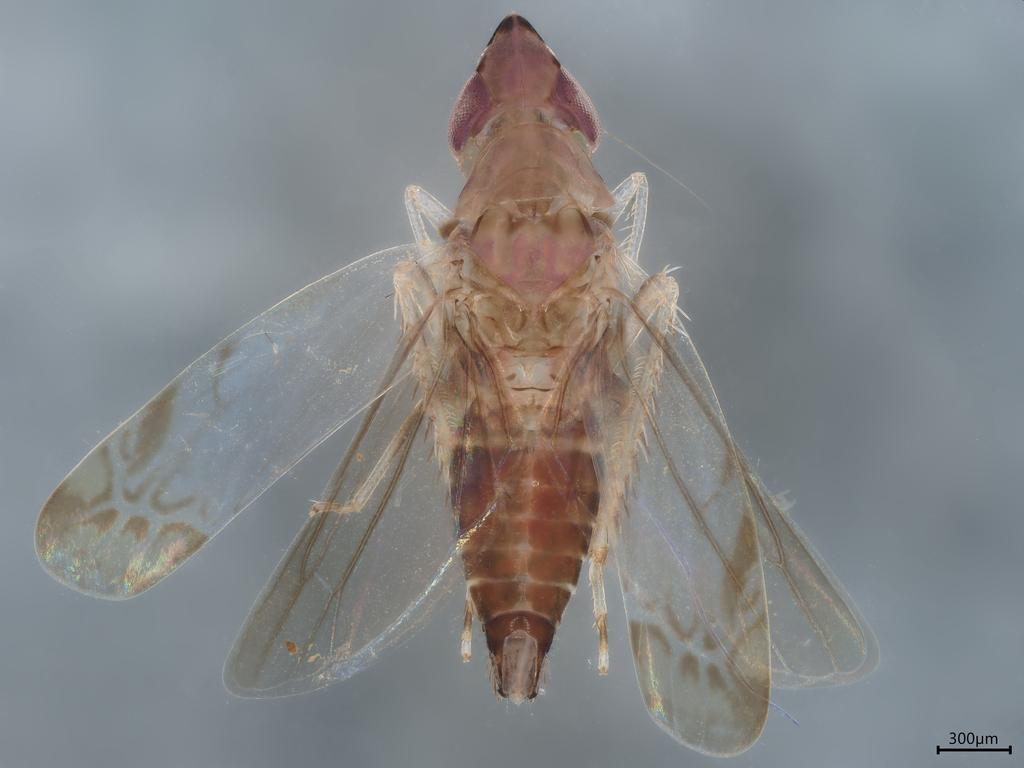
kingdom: Animalia
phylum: Arthropoda
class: Insecta
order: Hemiptera
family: Cicadellidae
